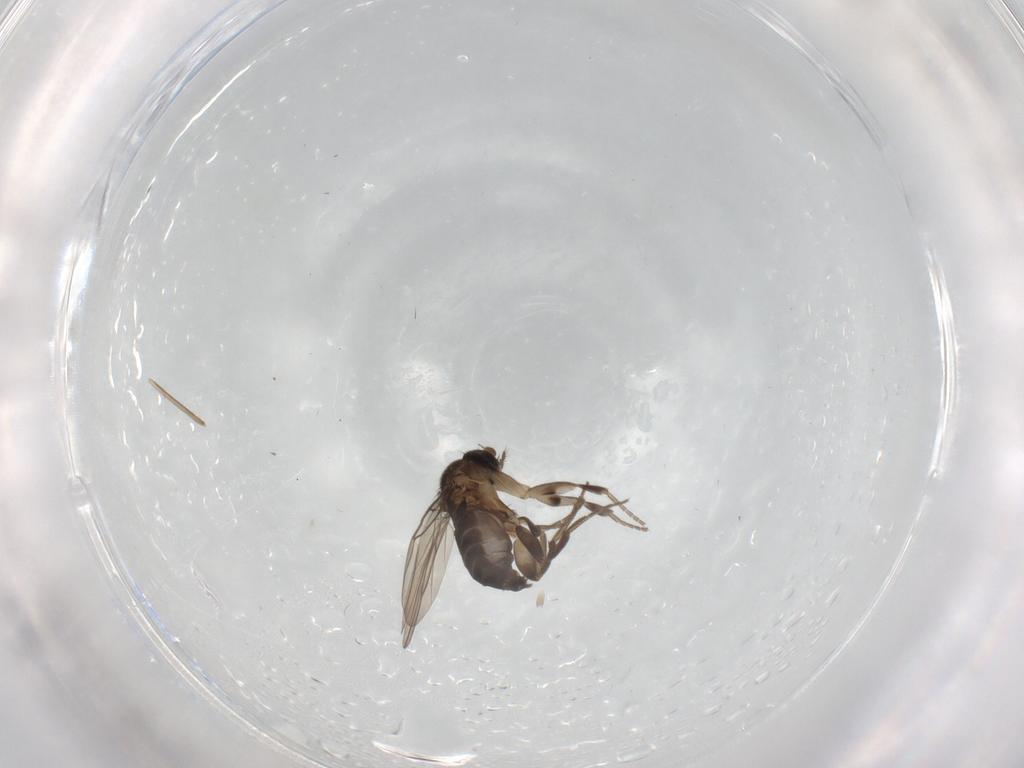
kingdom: Animalia
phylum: Arthropoda
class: Insecta
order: Diptera
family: Phoridae
